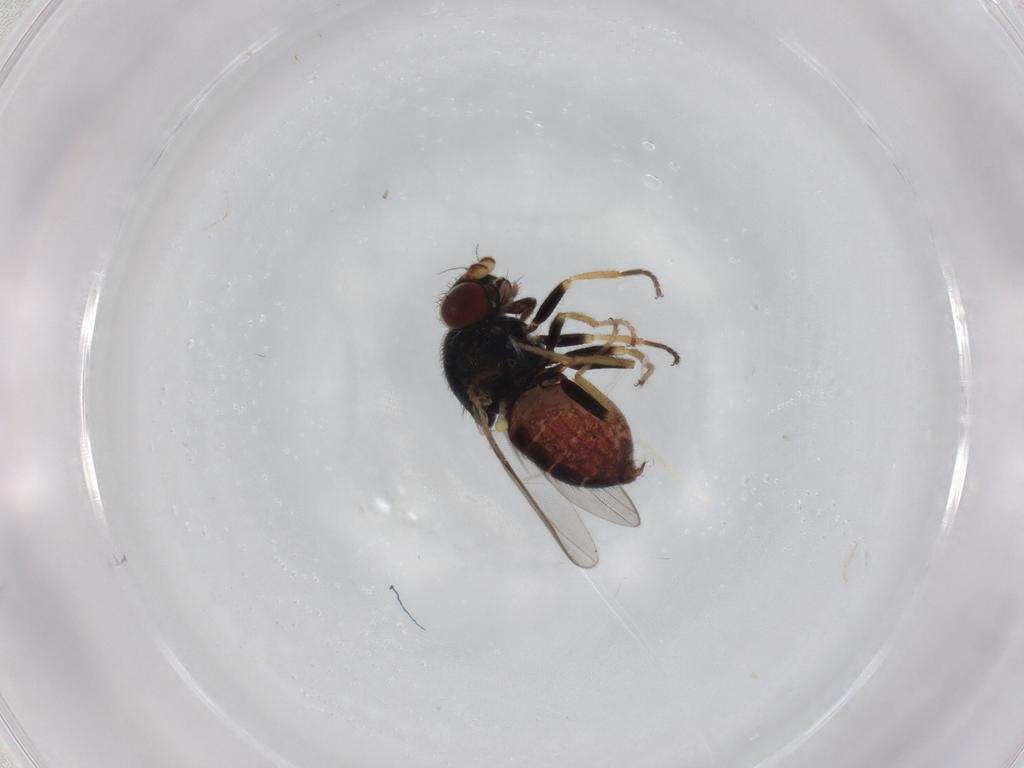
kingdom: Animalia
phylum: Arthropoda
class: Insecta
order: Diptera
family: Chloropidae
